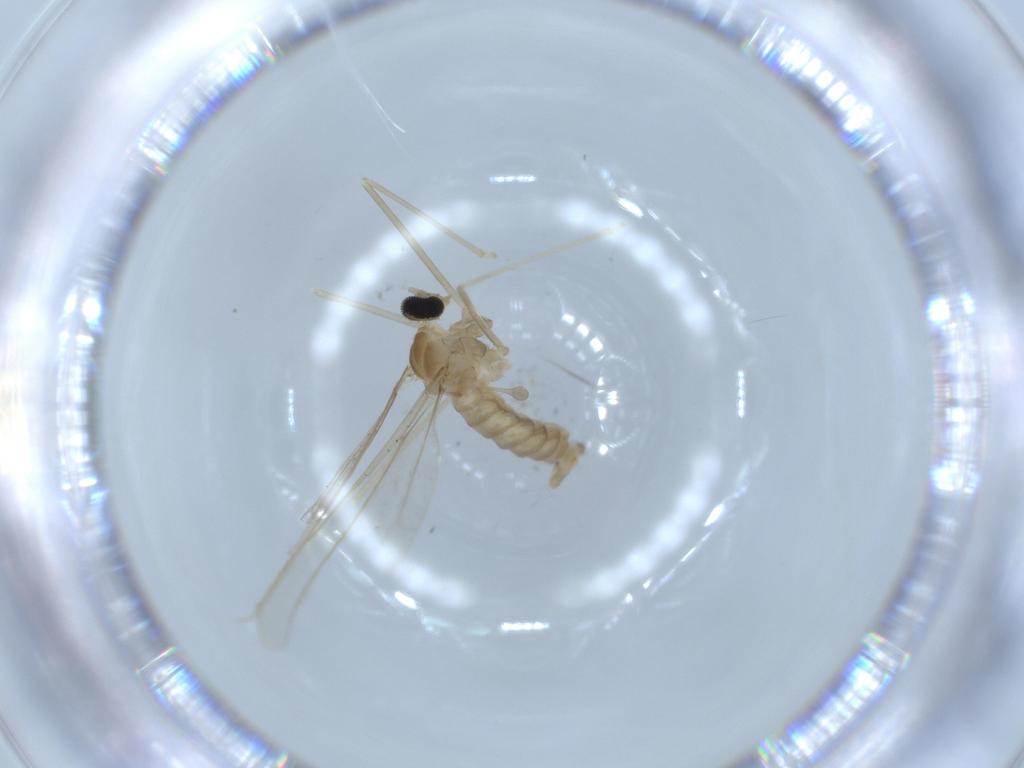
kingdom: Animalia
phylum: Arthropoda
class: Insecta
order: Diptera
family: Cecidomyiidae
